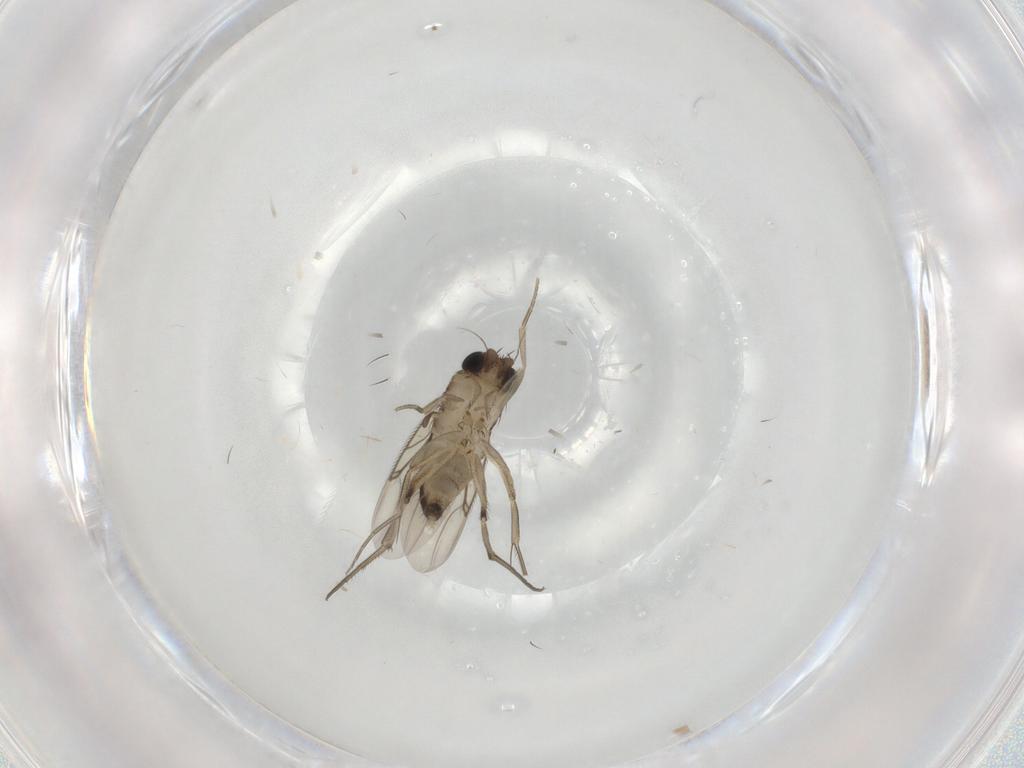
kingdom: Animalia
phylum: Arthropoda
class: Insecta
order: Diptera
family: Phoridae
